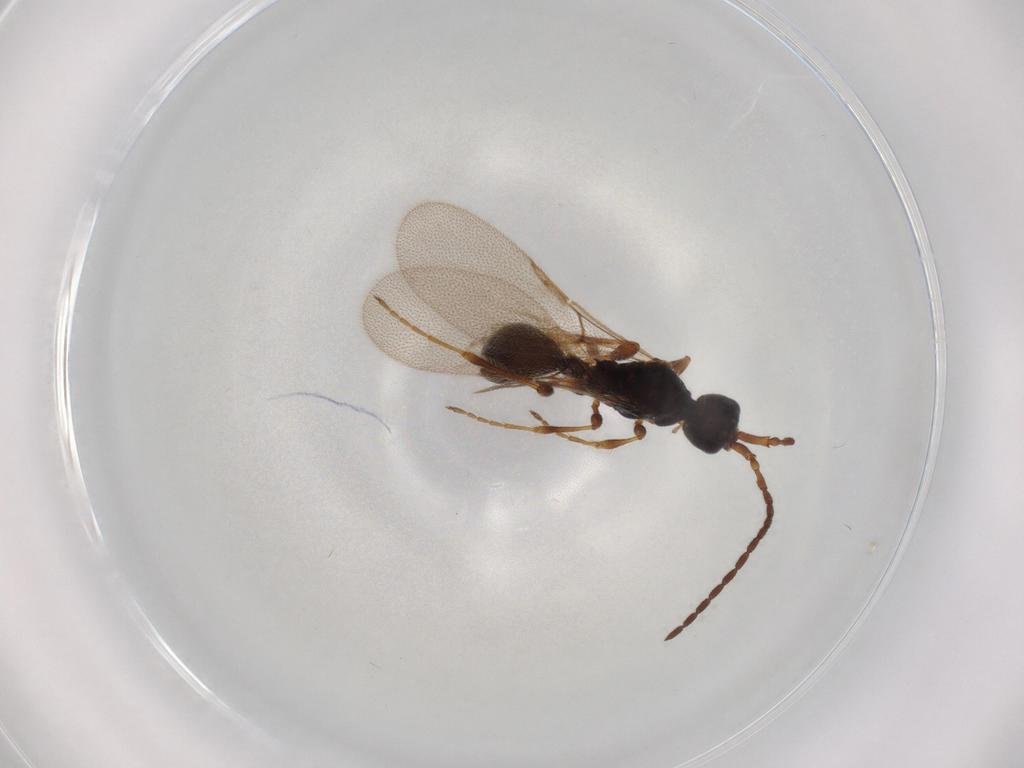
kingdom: Animalia
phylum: Arthropoda
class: Insecta
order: Hymenoptera
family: Diapriidae
